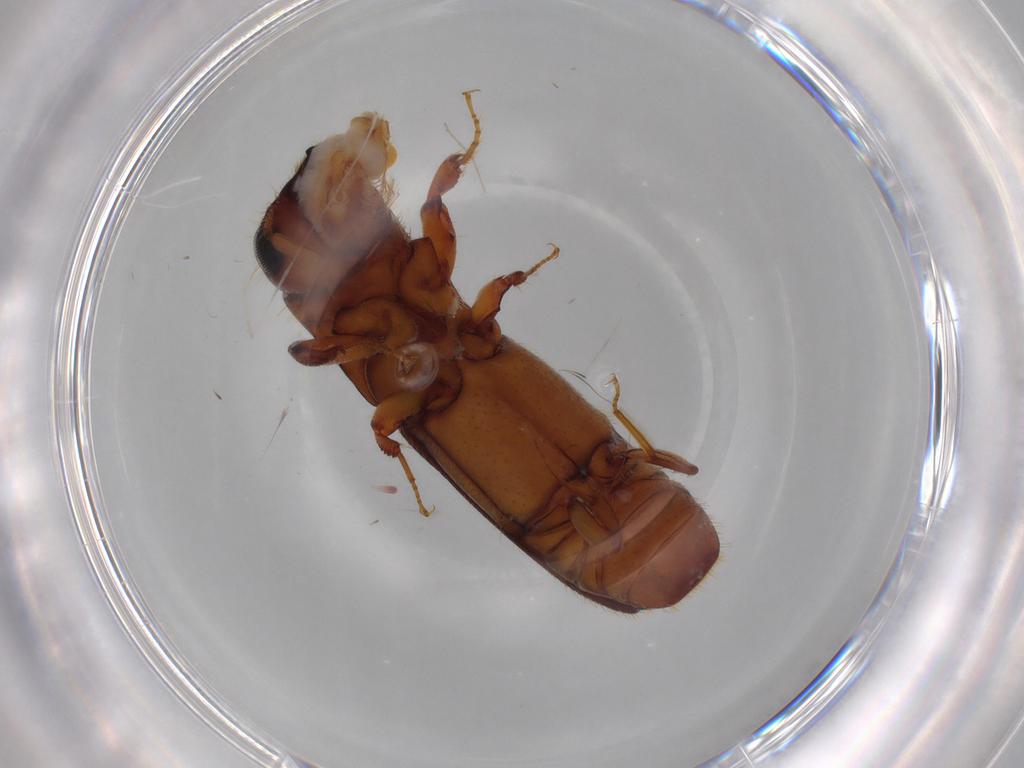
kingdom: Animalia
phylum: Arthropoda
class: Insecta
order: Coleoptera
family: Curculionidae
